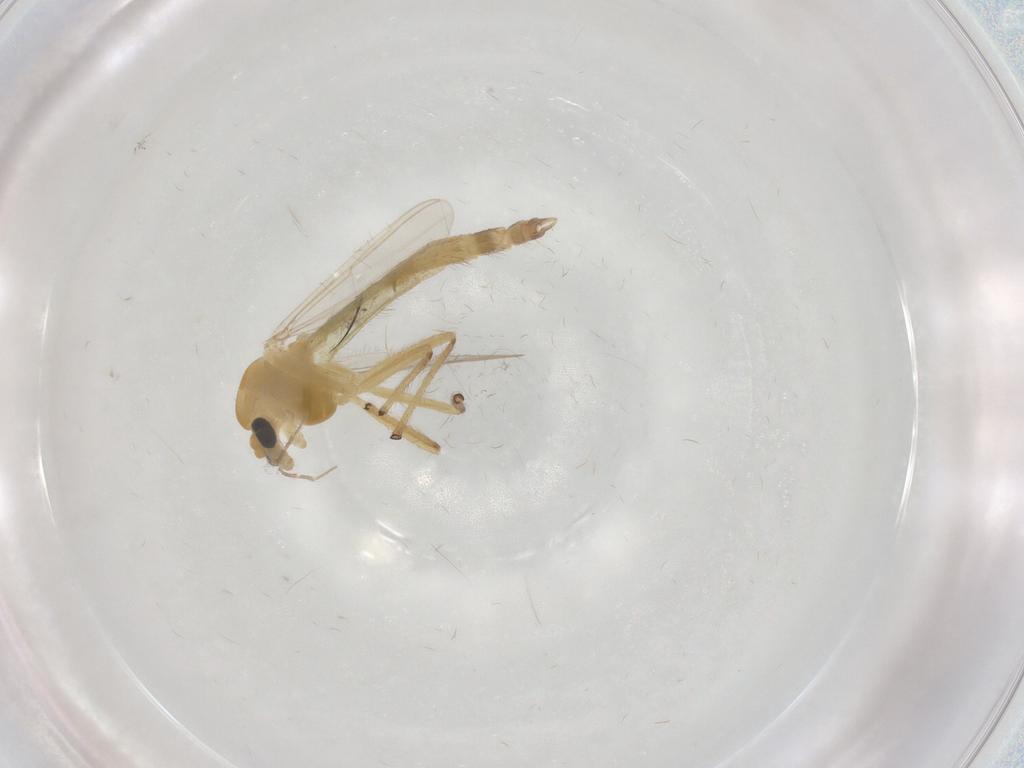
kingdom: Animalia
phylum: Arthropoda
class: Insecta
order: Diptera
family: Chironomidae
